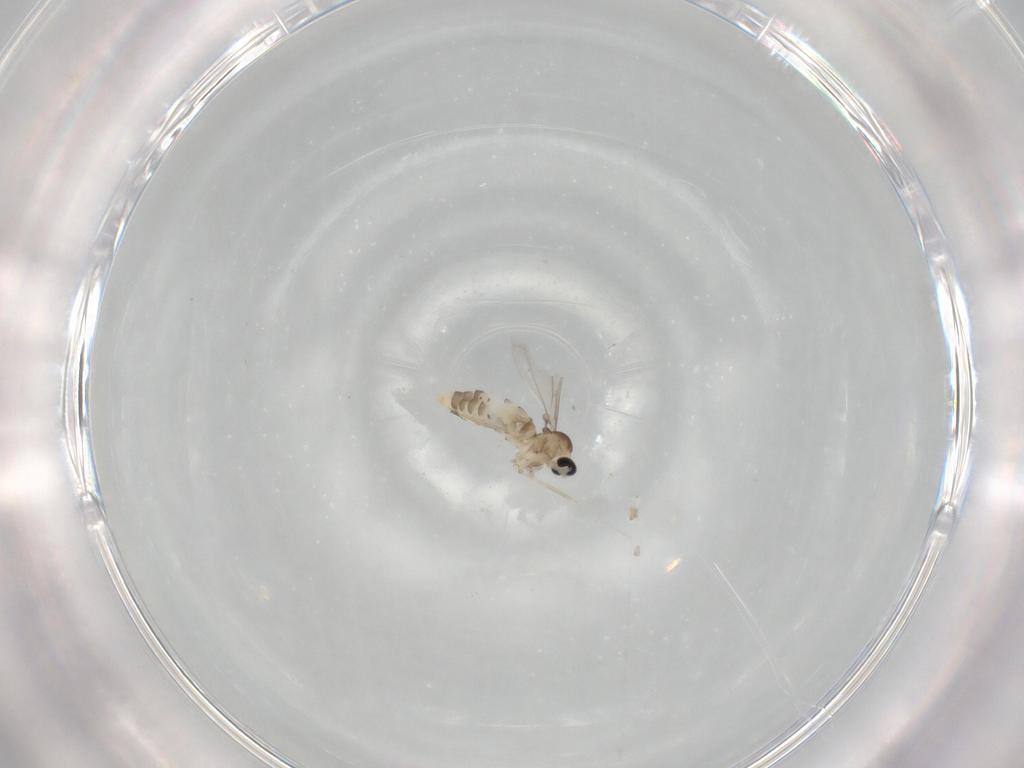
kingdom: Animalia
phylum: Arthropoda
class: Insecta
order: Diptera
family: Cecidomyiidae
